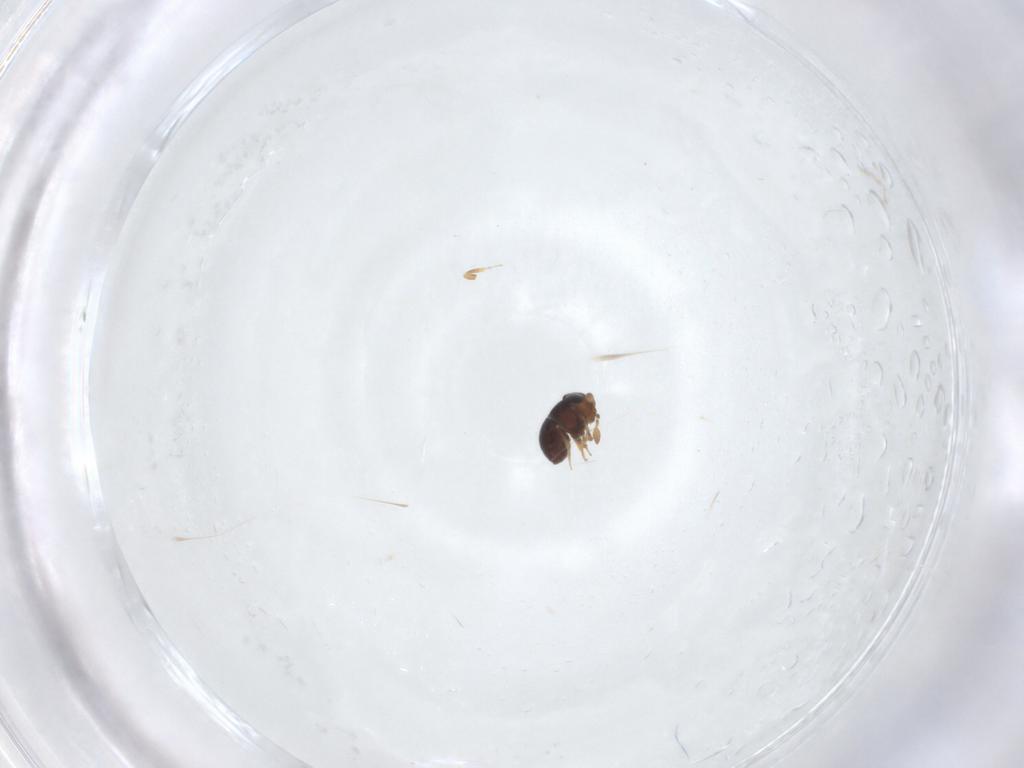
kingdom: Animalia
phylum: Arthropoda
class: Insecta
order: Hymenoptera
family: Scelionidae
